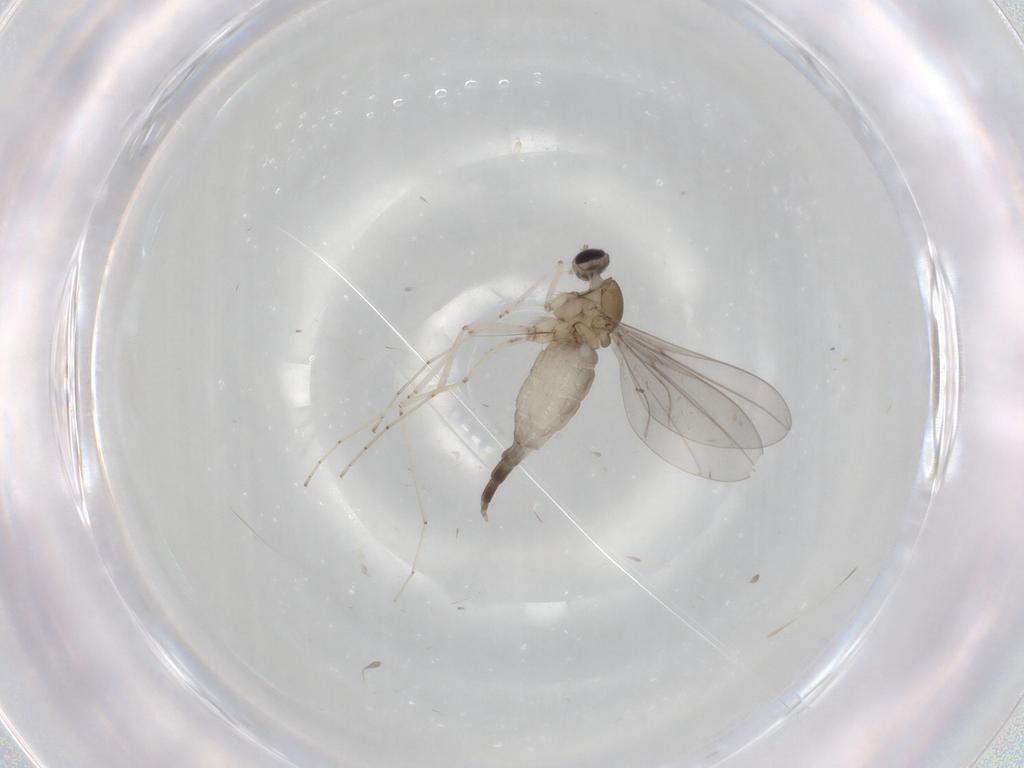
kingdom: Animalia
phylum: Arthropoda
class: Insecta
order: Diptera
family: Cecidomyiidae
